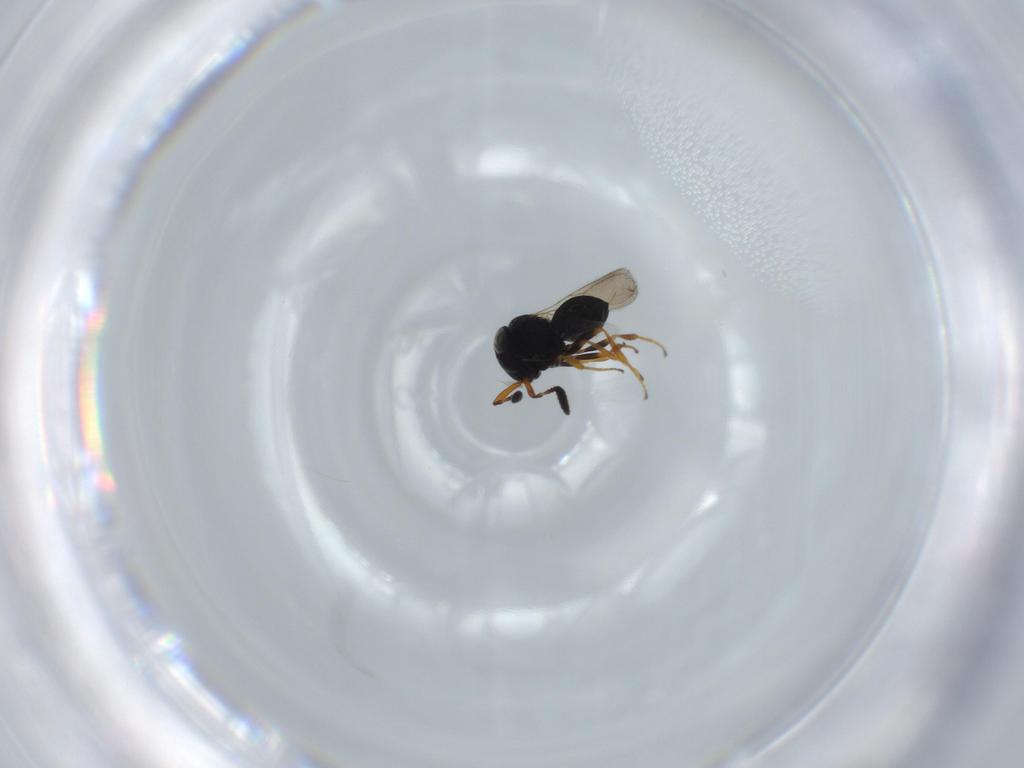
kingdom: Animalia
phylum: Arthropoda
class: Insecta
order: Hymenoptera
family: Scelionidae
